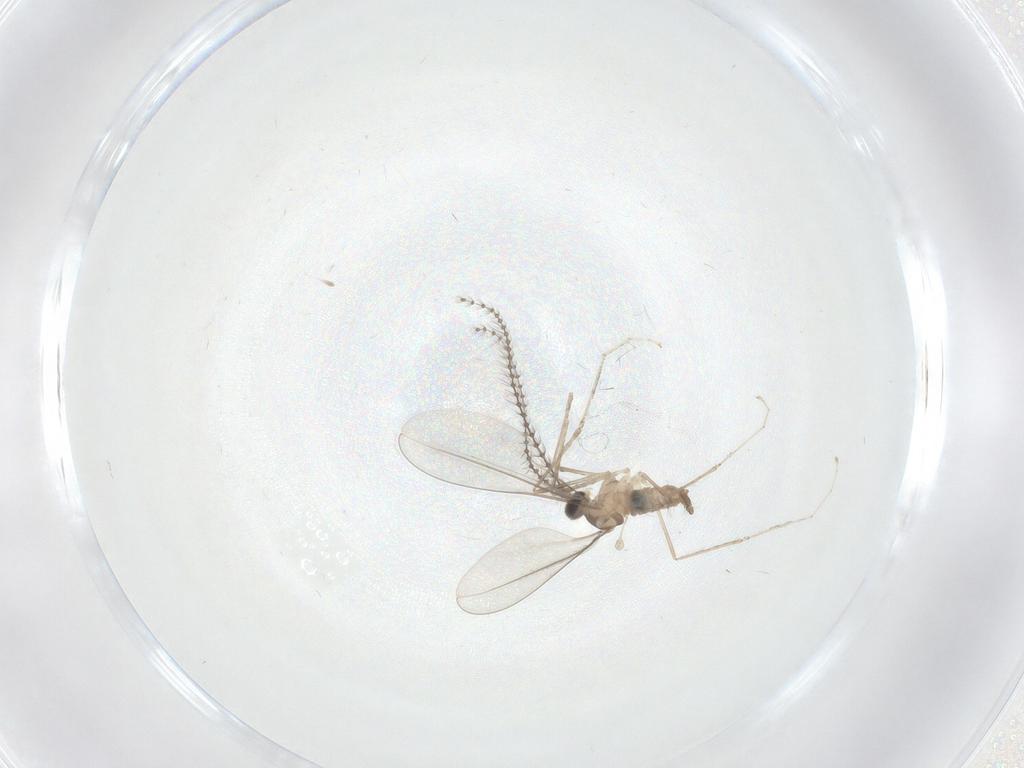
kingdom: Animalia
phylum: Arthropoda
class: Insecta
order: Diptera
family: Cecidomyiidae
